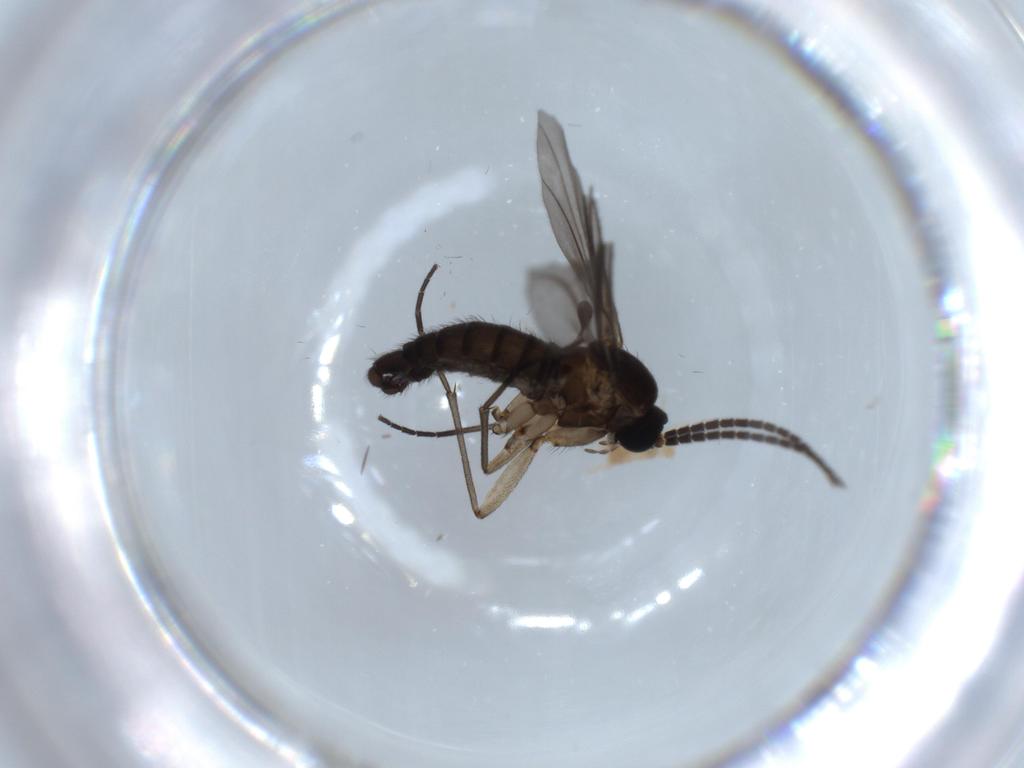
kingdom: Animalia
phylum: Arthropoda
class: Insecta
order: Diptera
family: Sciaridae
